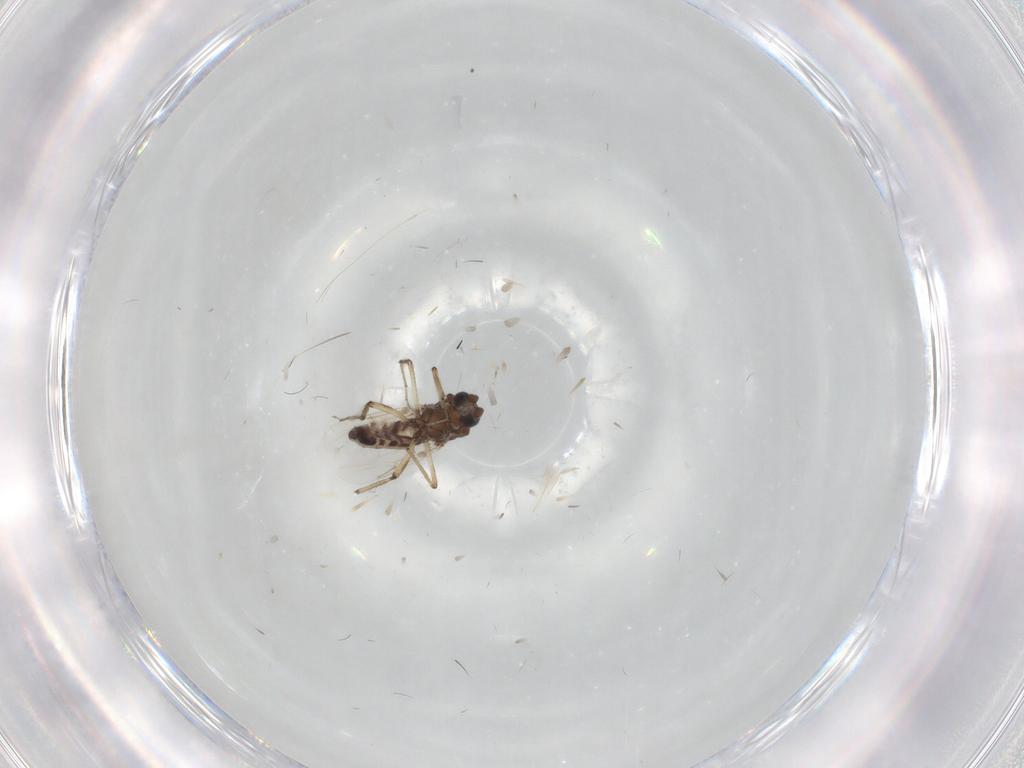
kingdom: Animalia
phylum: Arthropoda
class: Insecta
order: Diptera
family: Ceratopogonidae
